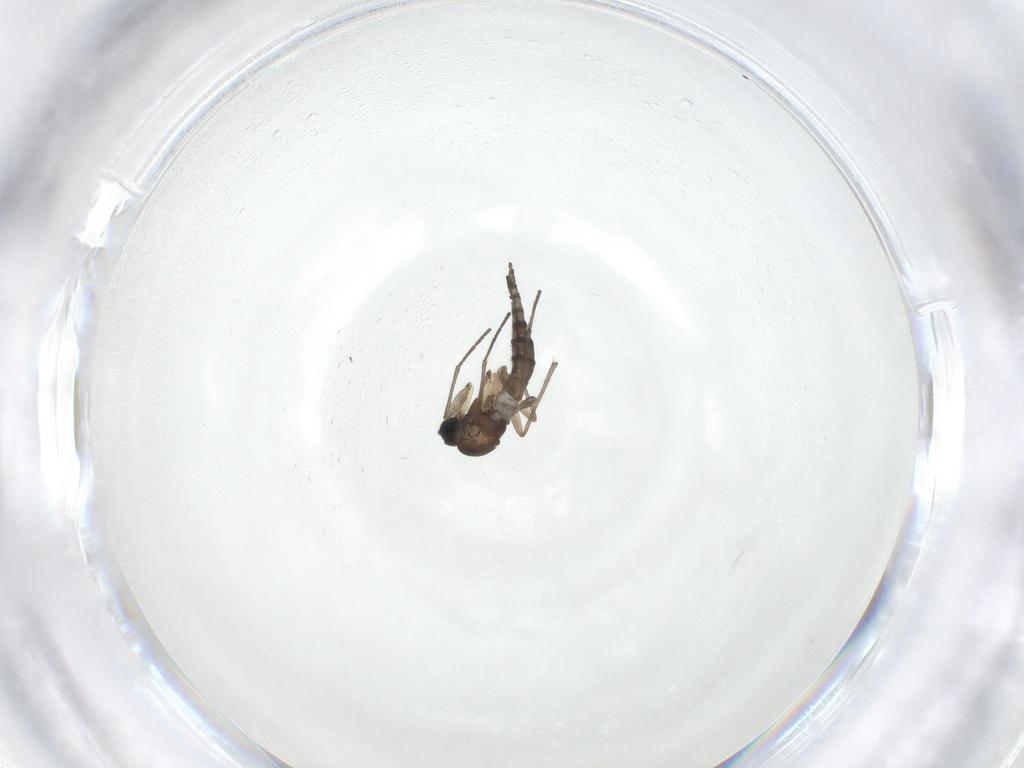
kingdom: Animalia
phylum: Arthropoda
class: Insecta
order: Diptera
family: Sciaridae
